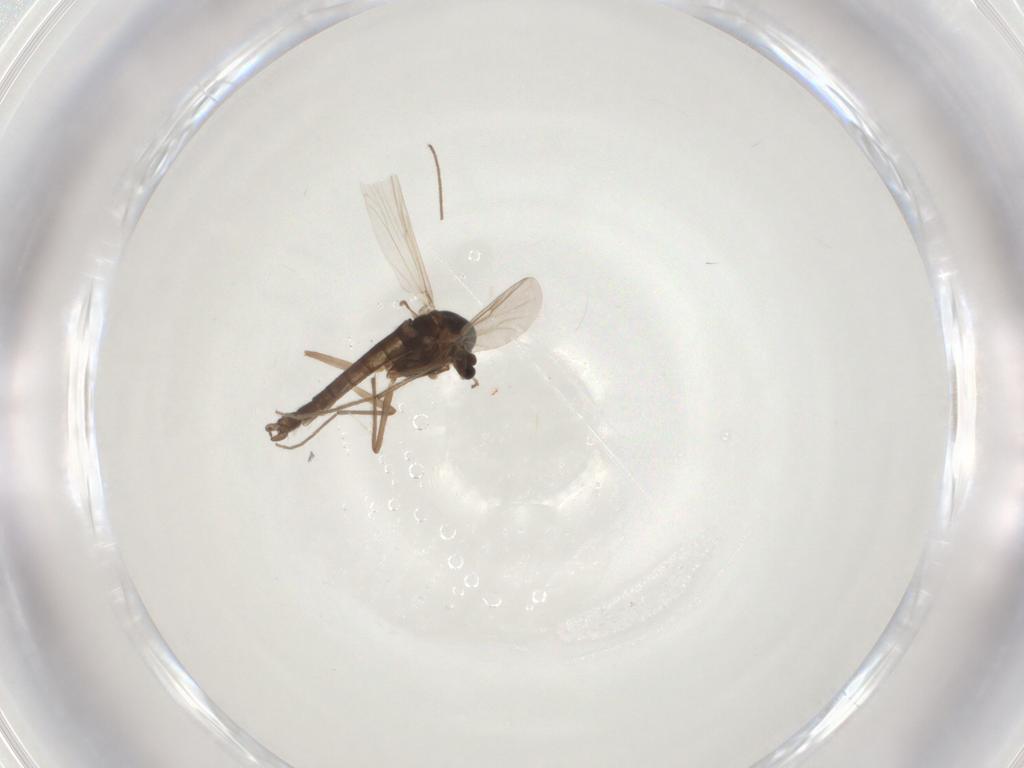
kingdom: Animalia
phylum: Arthropoda
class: Insecta
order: Diptera
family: Chironomidae
